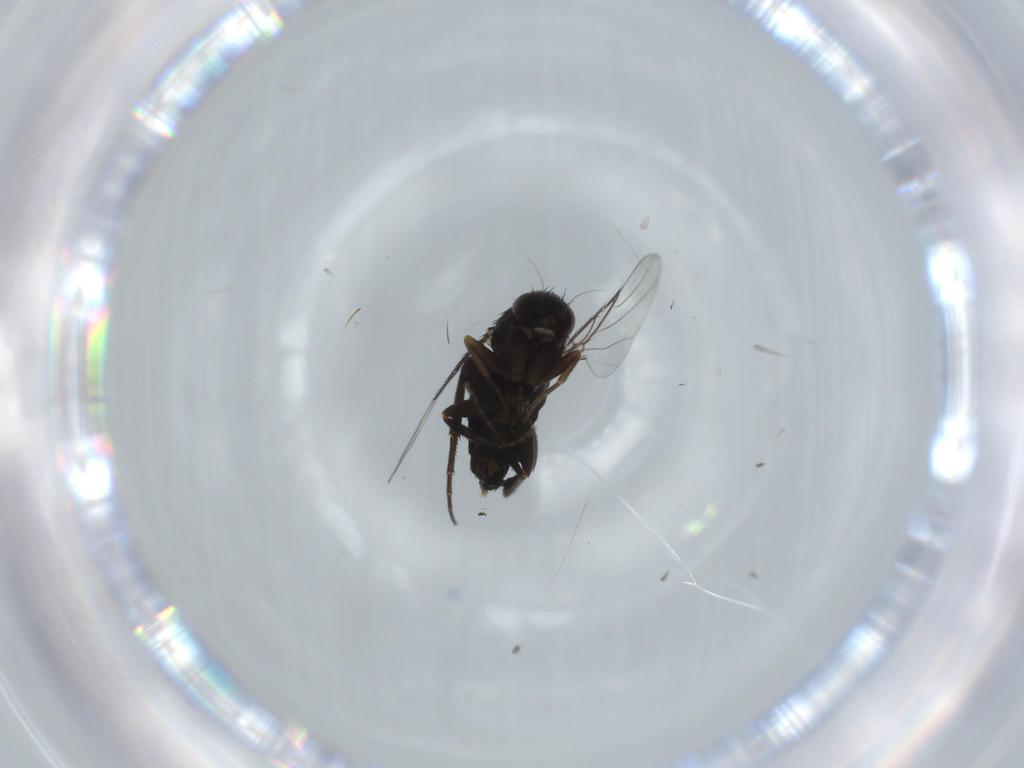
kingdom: Animalia
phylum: Arthropoda
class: Insecta
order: Diptera
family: Phoridae
